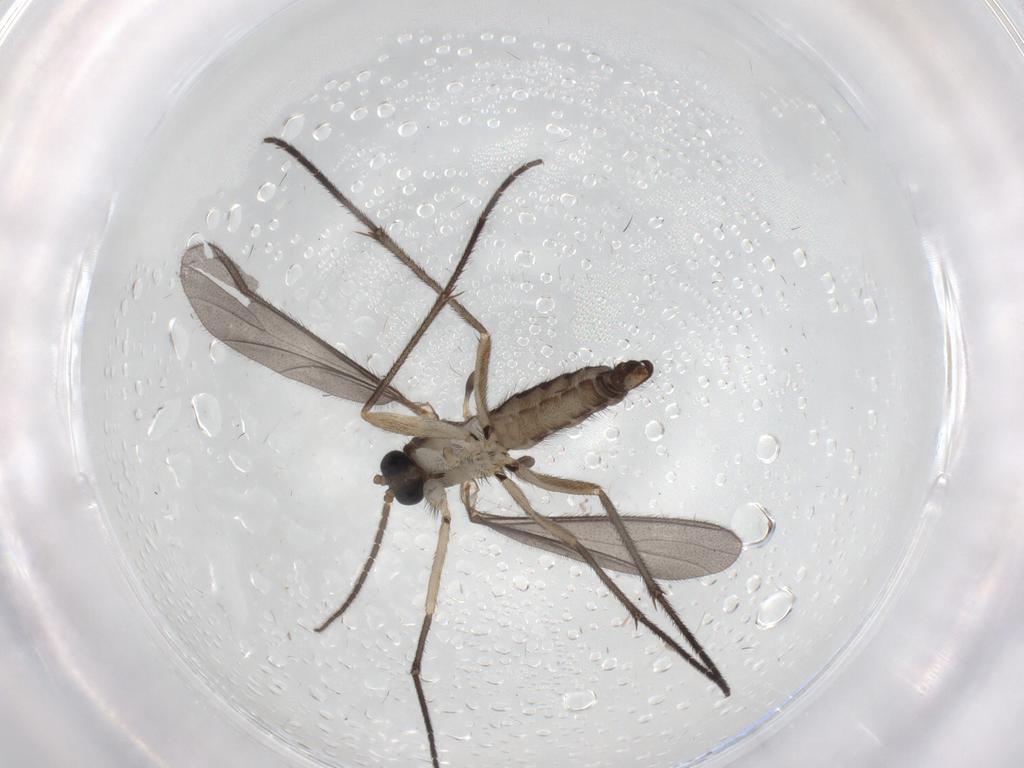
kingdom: Animalia
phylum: Arthropoda
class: Insecta
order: Diptera
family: Sciaridae
